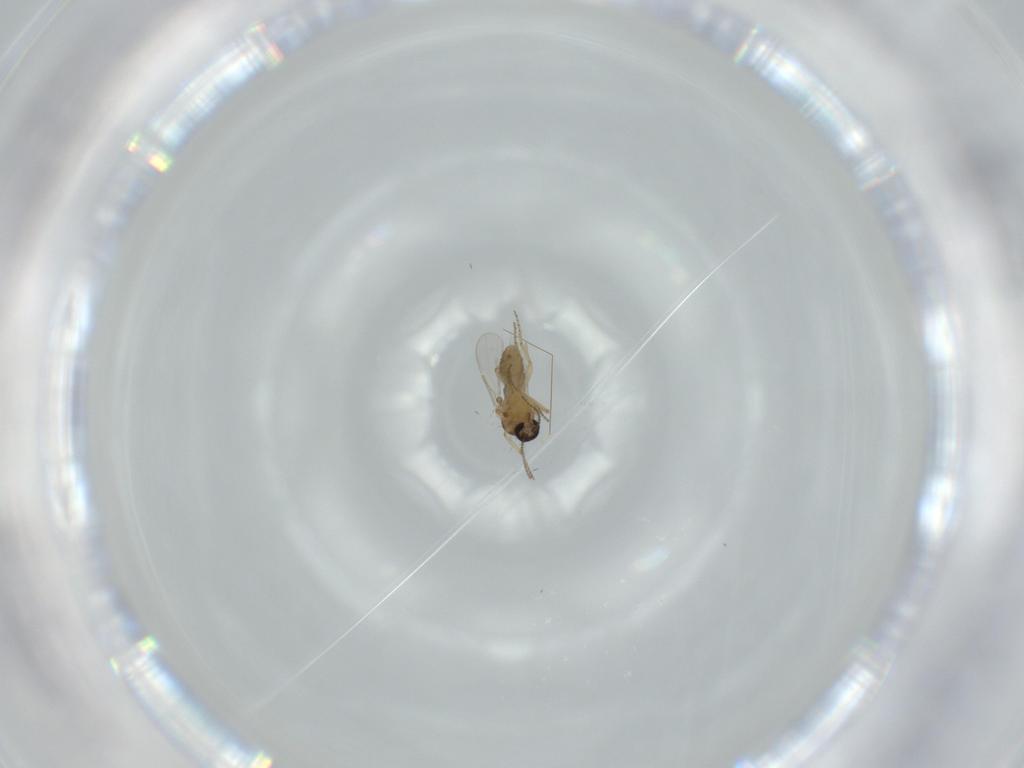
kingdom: Animalia
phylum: Arthropoda
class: Insecta
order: Diptera
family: Ceratopogonidae
